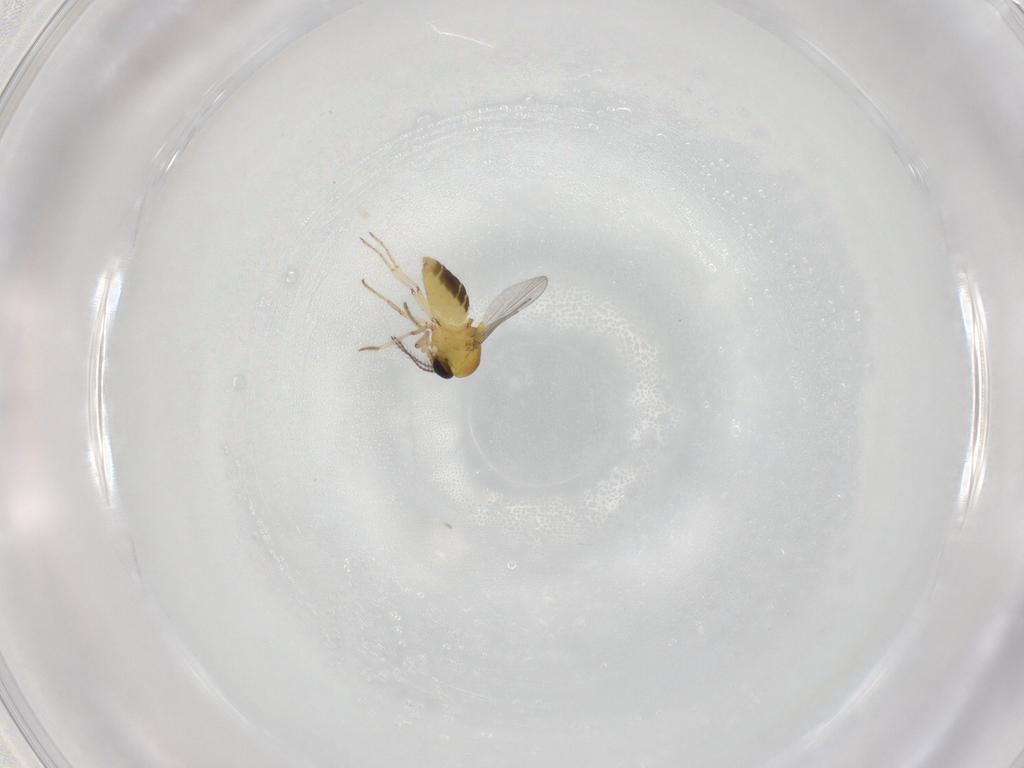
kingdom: Animalia
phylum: Arthropoda
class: Insecta
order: Diptera
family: Ceratopogonidae
